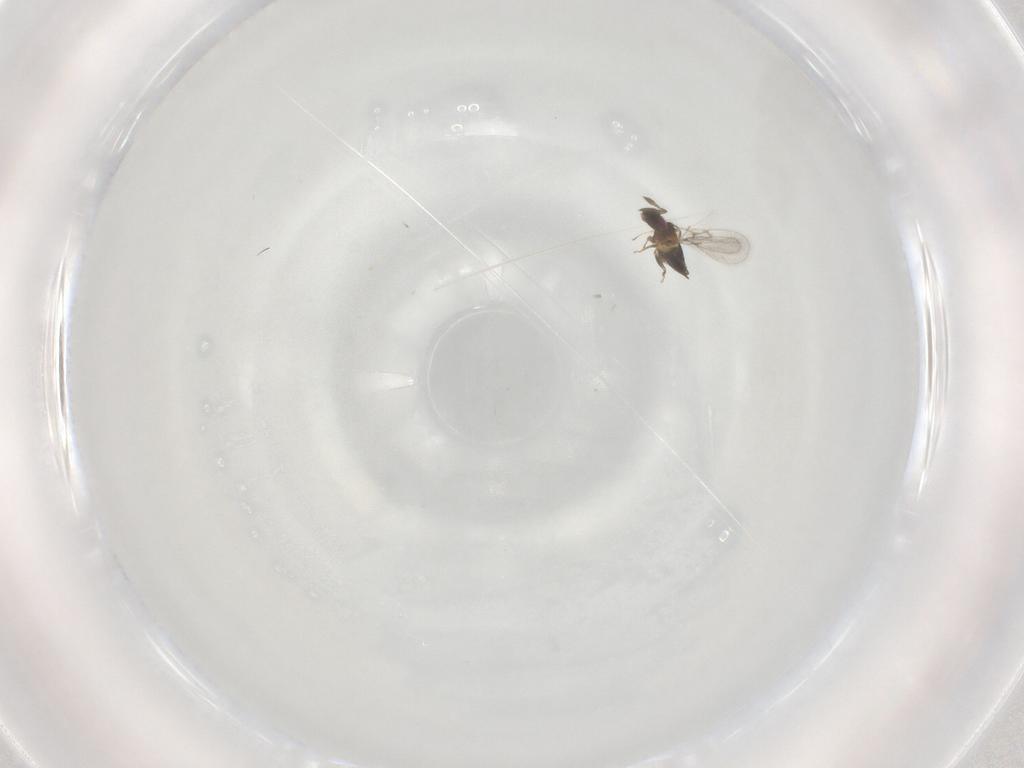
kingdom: Animalia
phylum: Arthropoda
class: Insecta
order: Hymenoptera
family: Trichogrammatidae
